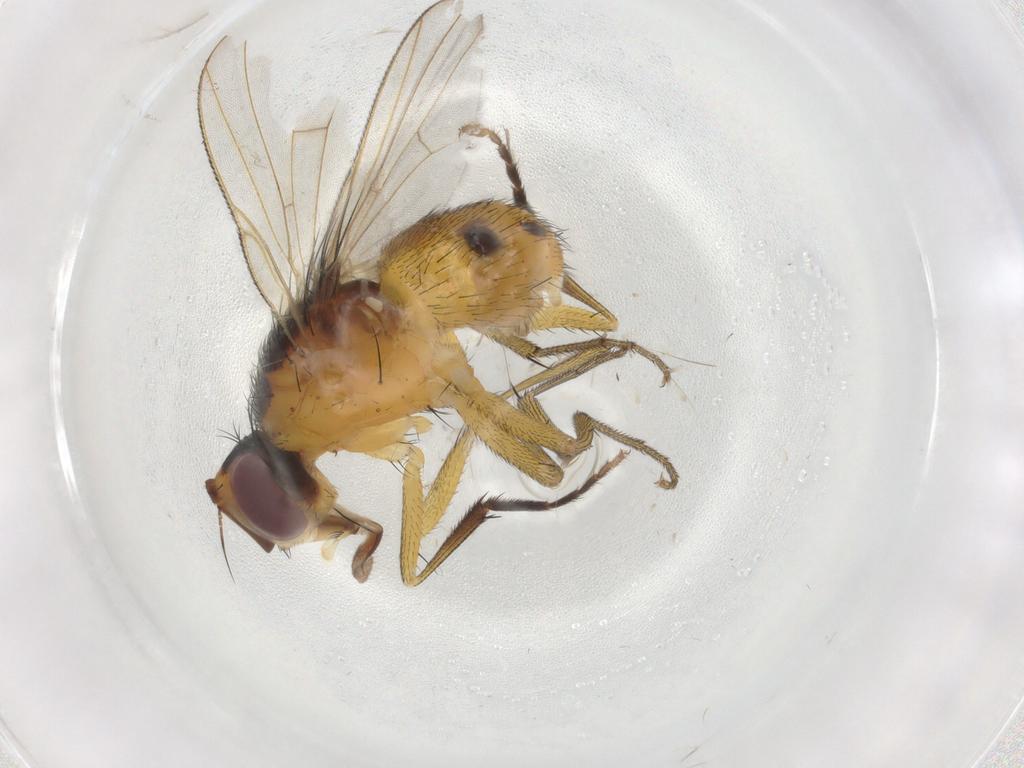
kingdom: Animalia
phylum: Arthropoda
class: Insecta
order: Diptera
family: Muscidae
